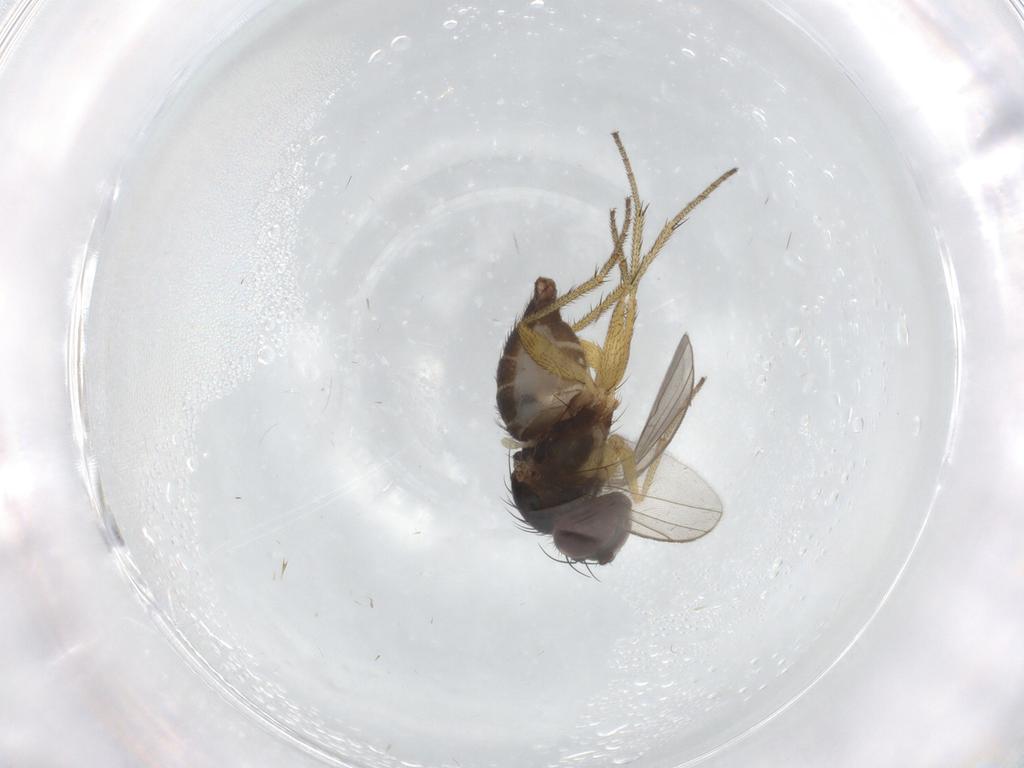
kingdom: Animalia
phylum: Arthropoda
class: Insecta
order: Diptera
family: Dolichopodidae
